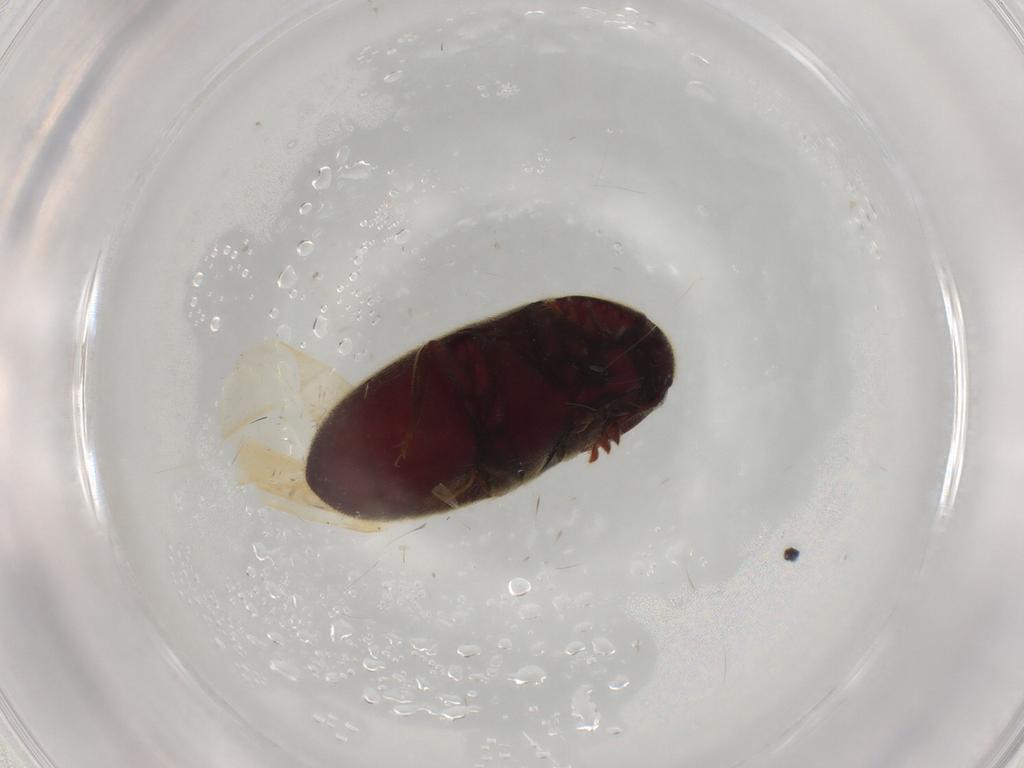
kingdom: Animalia
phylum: Arthropoda
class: Insecta
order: Coleoptera
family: Throscidae
